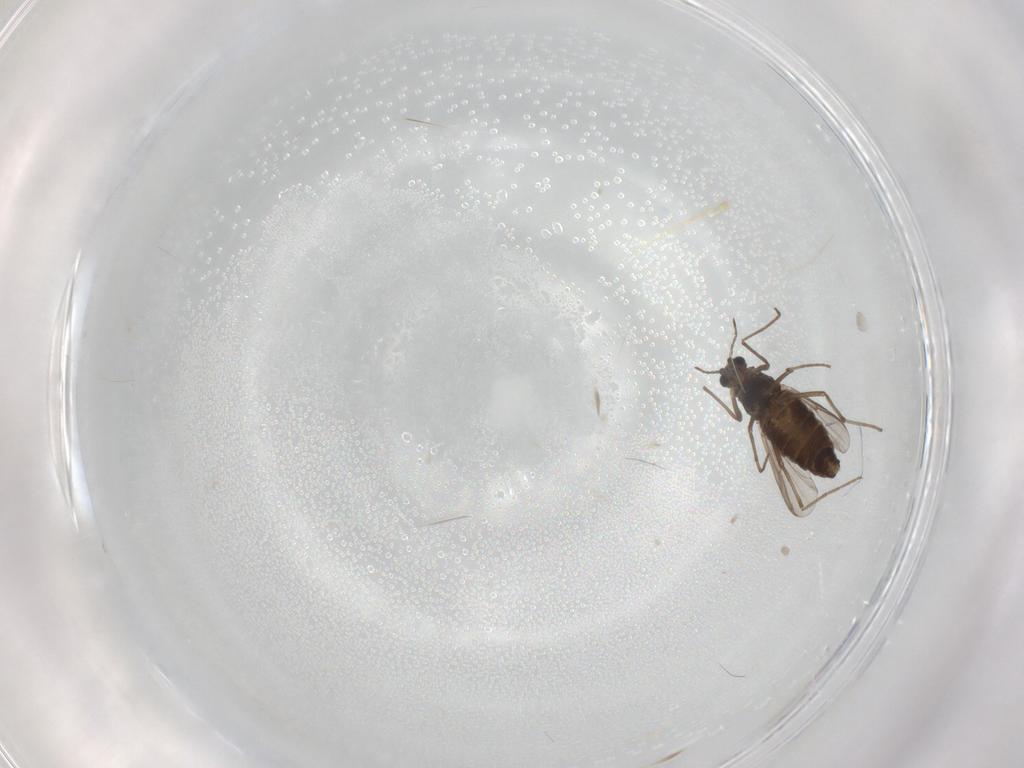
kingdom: Animalia
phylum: Arthropoda
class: Insecta
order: Diptera
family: Chironomidae
